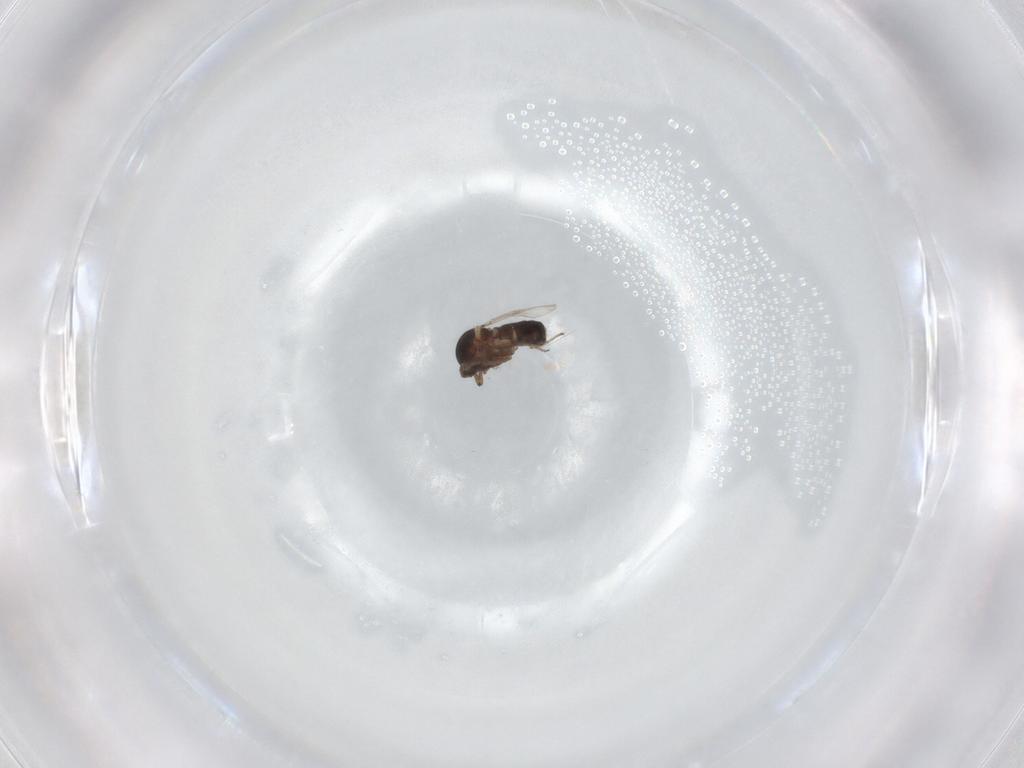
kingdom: Animalia
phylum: Arthropoda
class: Insecta
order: Diptera
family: Ceratopogonidae
